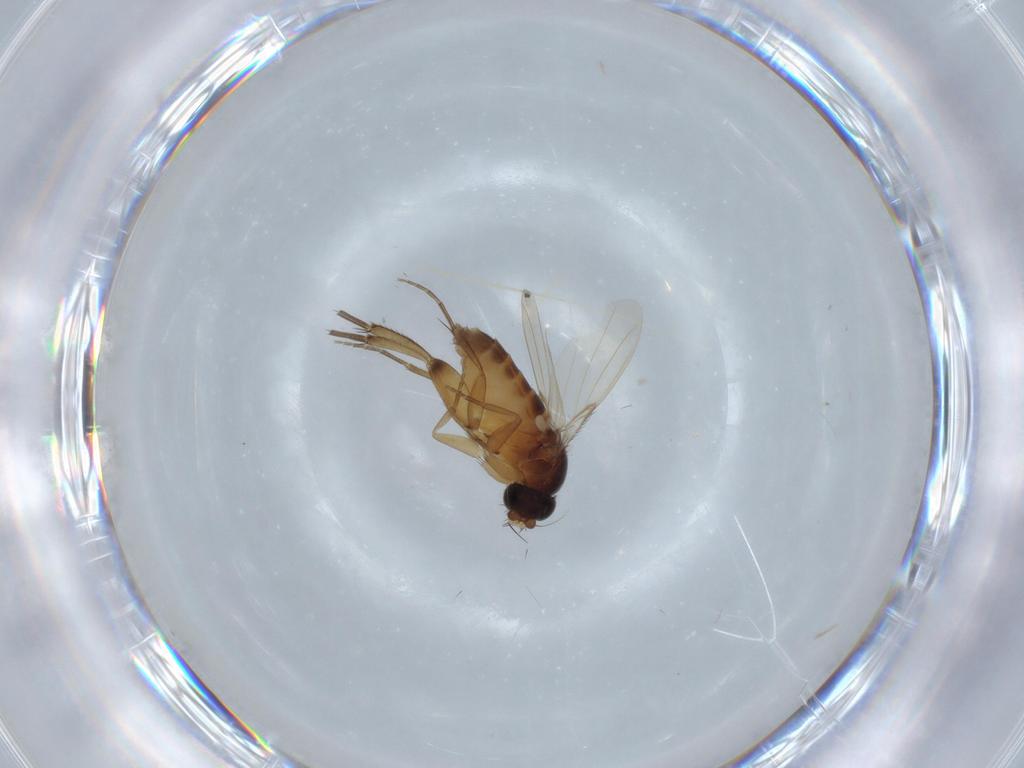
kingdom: Animalia
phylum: Arthropoda
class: Insecta
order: Diptera
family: Phoridae
